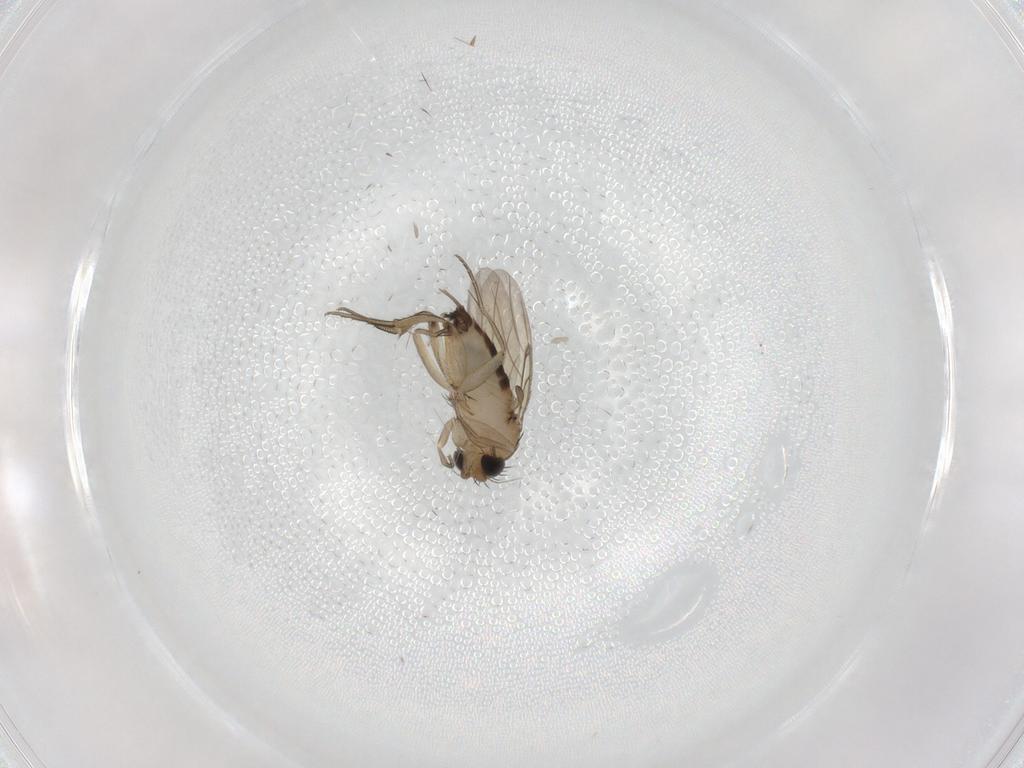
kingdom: Animalia
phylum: Arthropoda
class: Insecta
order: Diptera
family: Phoridae
